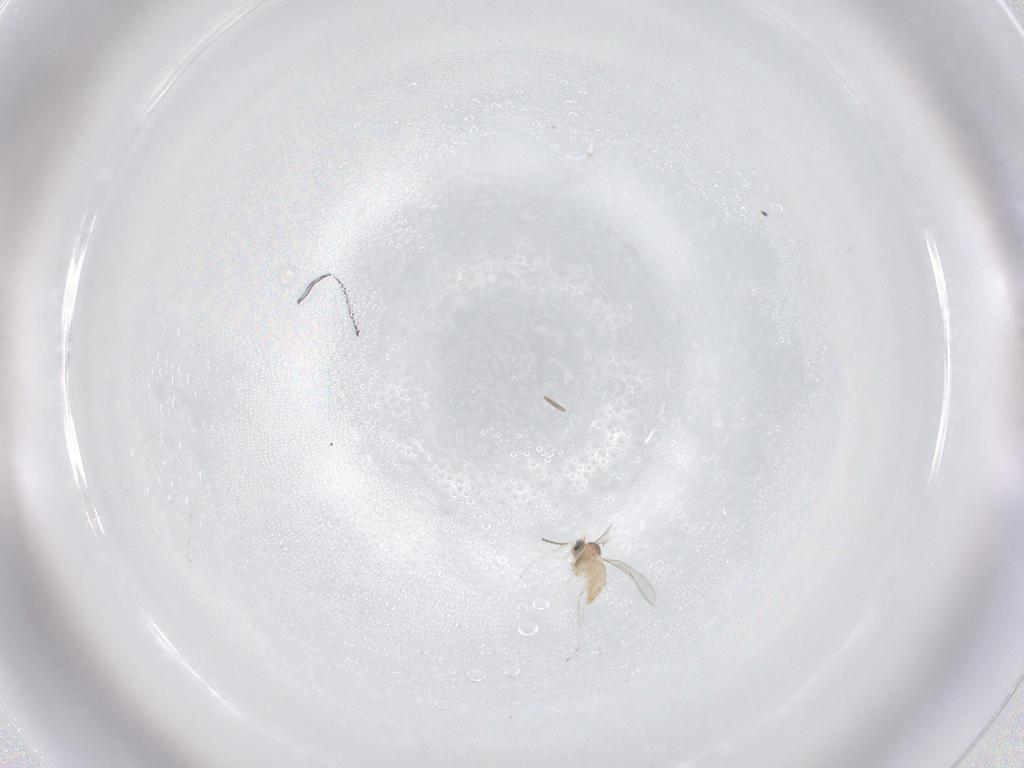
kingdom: Animalia
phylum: Arthropoda
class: Insecta
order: Diptera
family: Cecidomyiidae
